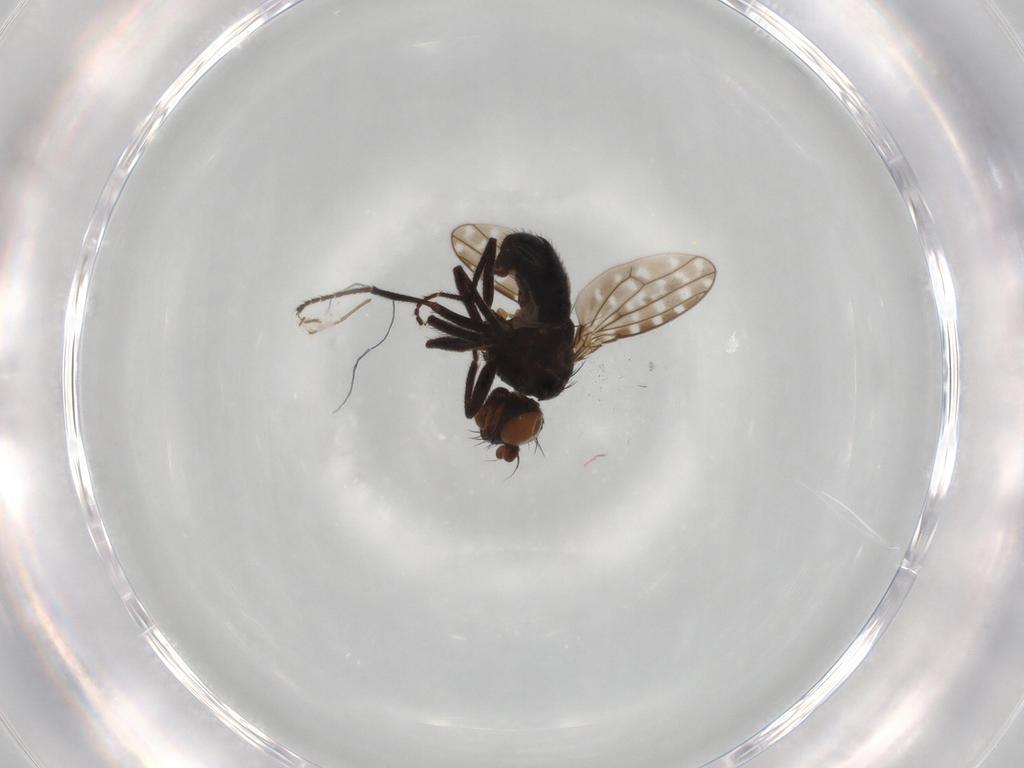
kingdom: Animalia
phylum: Arthropoda
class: Insecta
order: Diptera
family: Ephydridae
